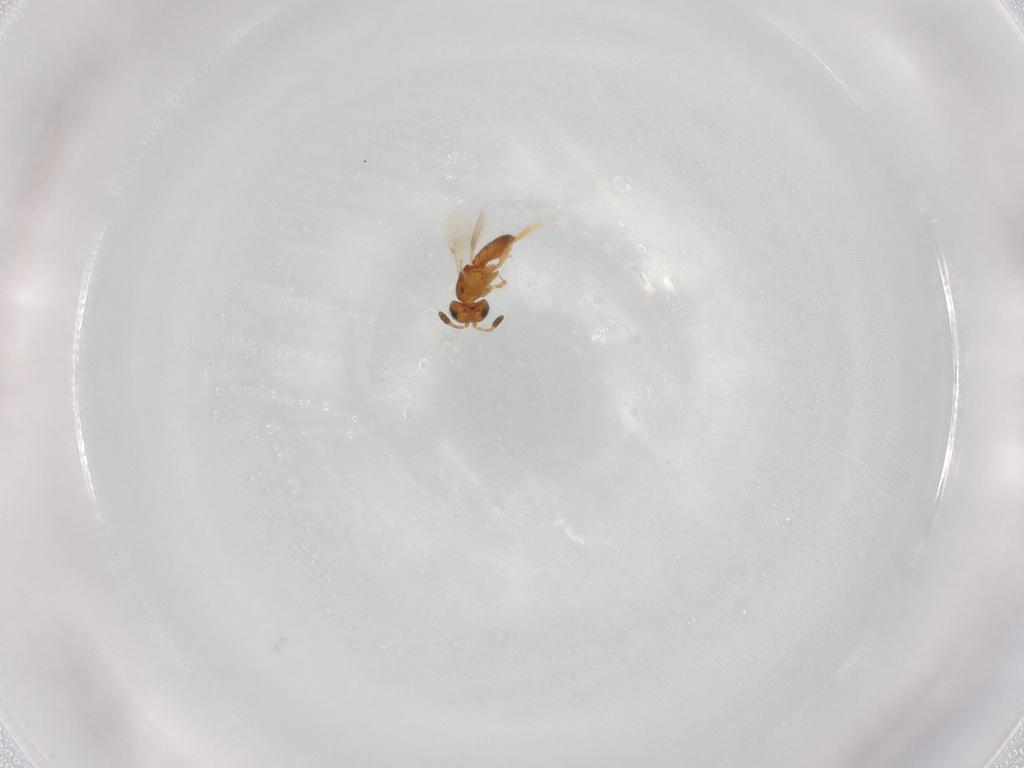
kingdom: Animalia
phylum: Arthropoda
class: Insecta
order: Hymenoptera
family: Scelionidae
